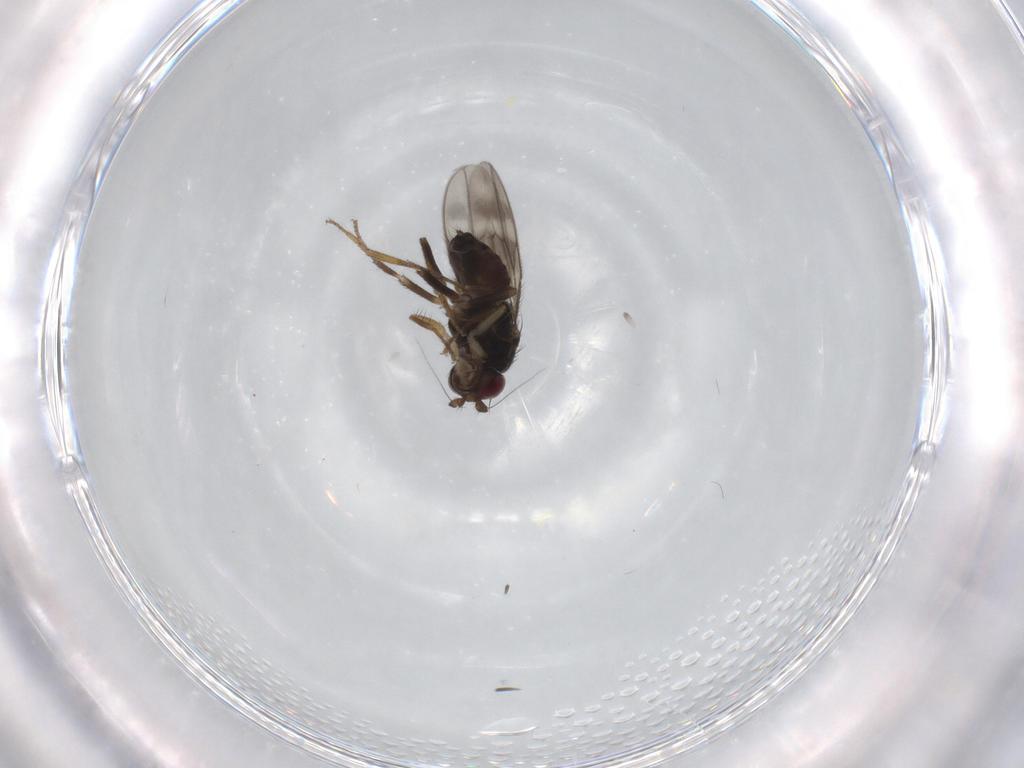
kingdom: Animalia
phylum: Arthropoda
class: Insecta
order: Diptera
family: Sphaeroceridae
